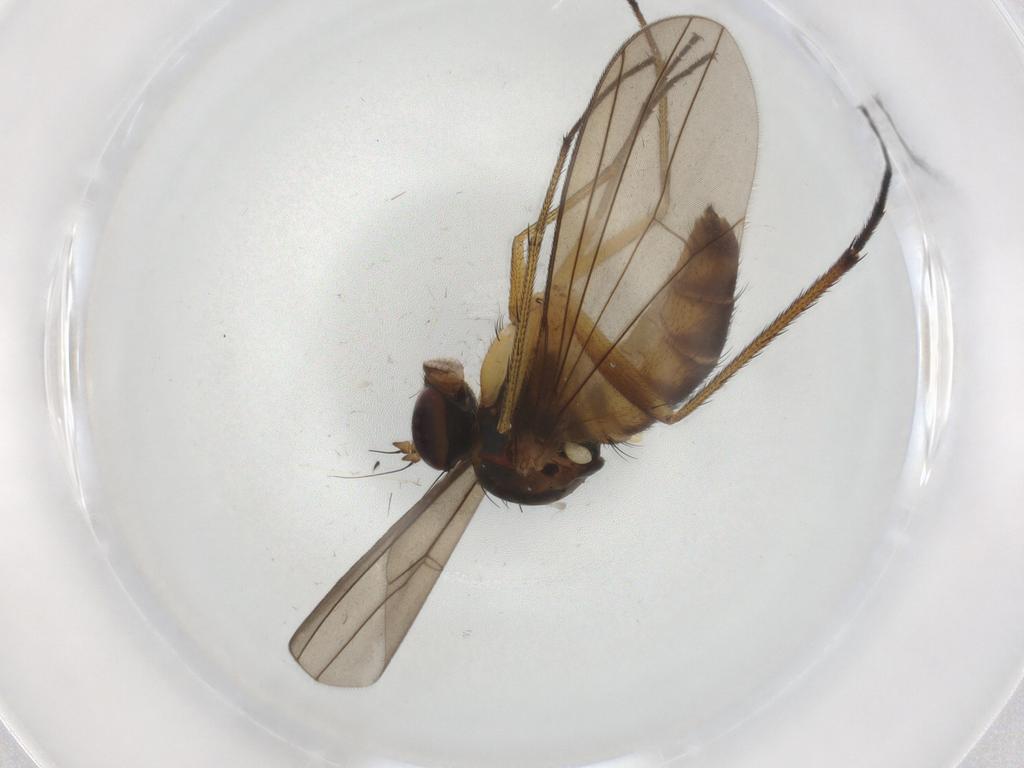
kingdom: Animalia
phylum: Arthropoda
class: Insecta
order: Diptera
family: Dolichopodidae
